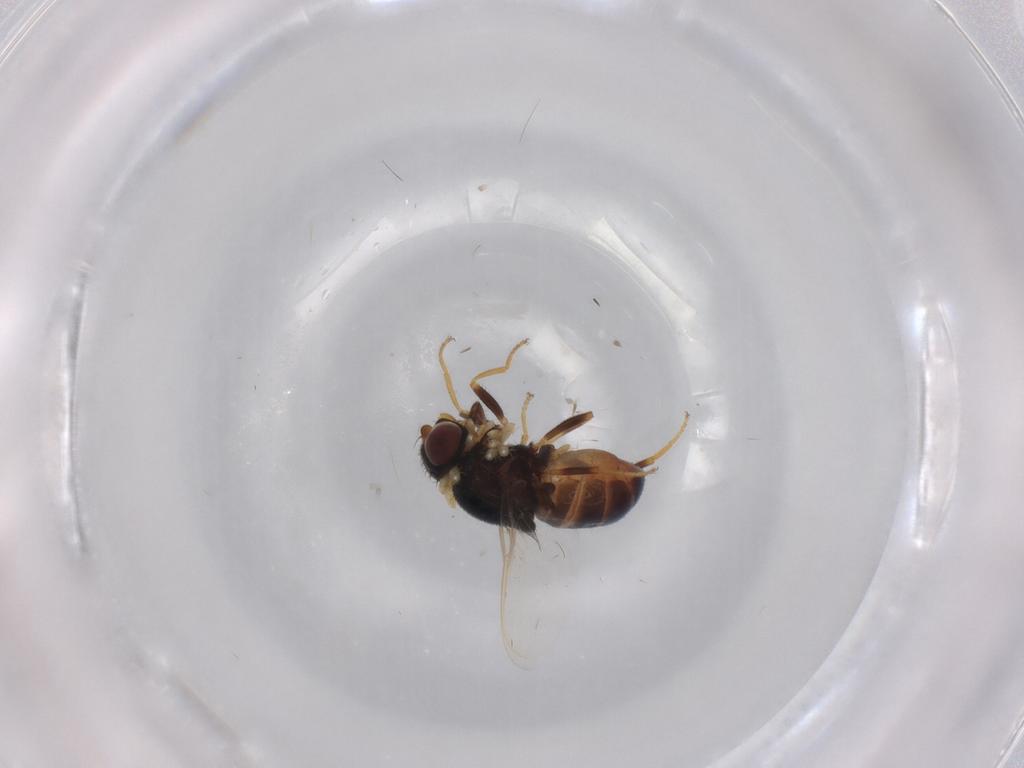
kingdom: Animalia
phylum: Arthropoda
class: Insecta
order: Diptera
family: Chloropidae
